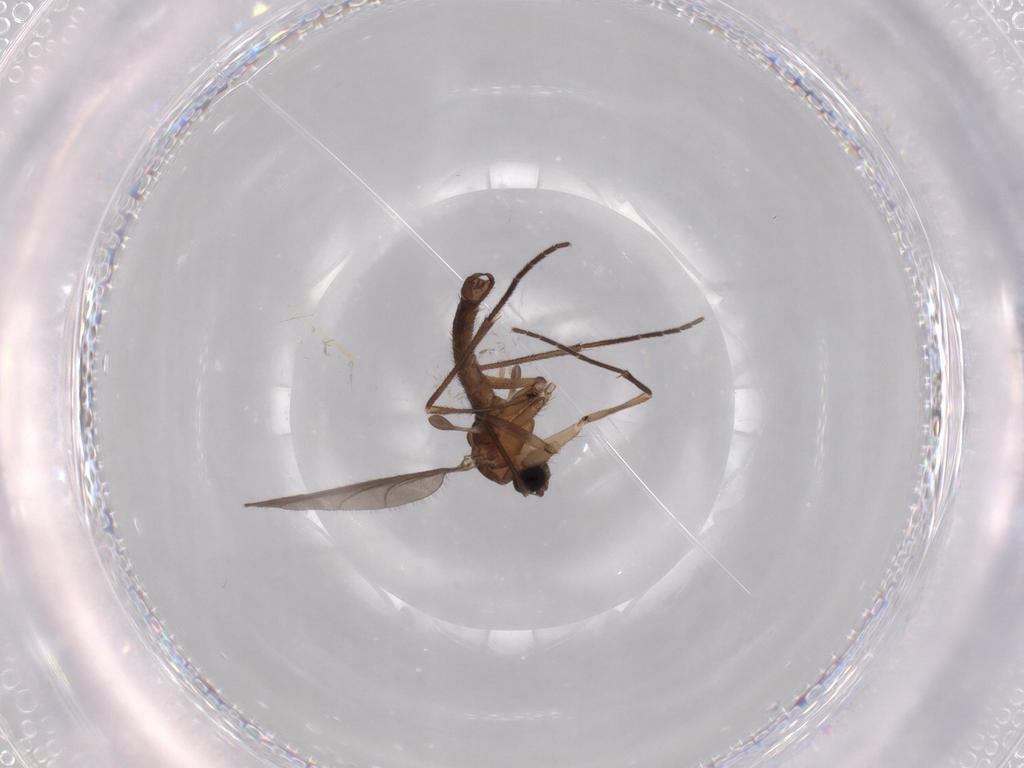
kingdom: Animalia
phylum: Arthropoda
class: Insecta
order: Diptera
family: Sciaridae
